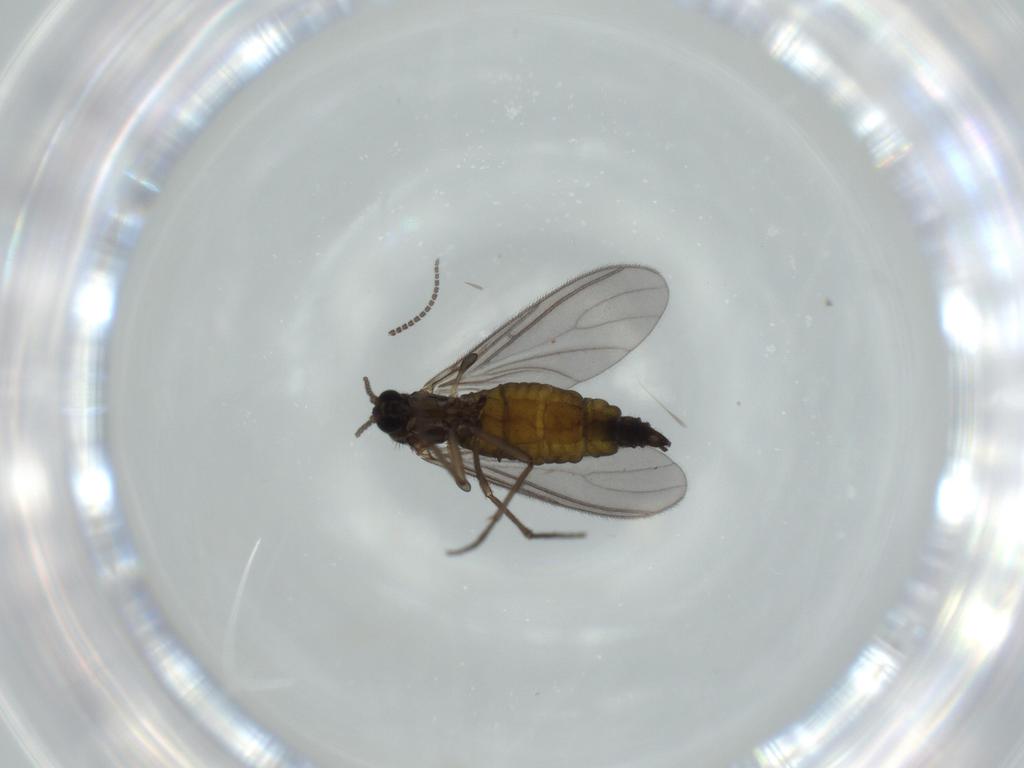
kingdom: Animalia
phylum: Arthropoda
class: Insecta
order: Diptera
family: Sciaridae
